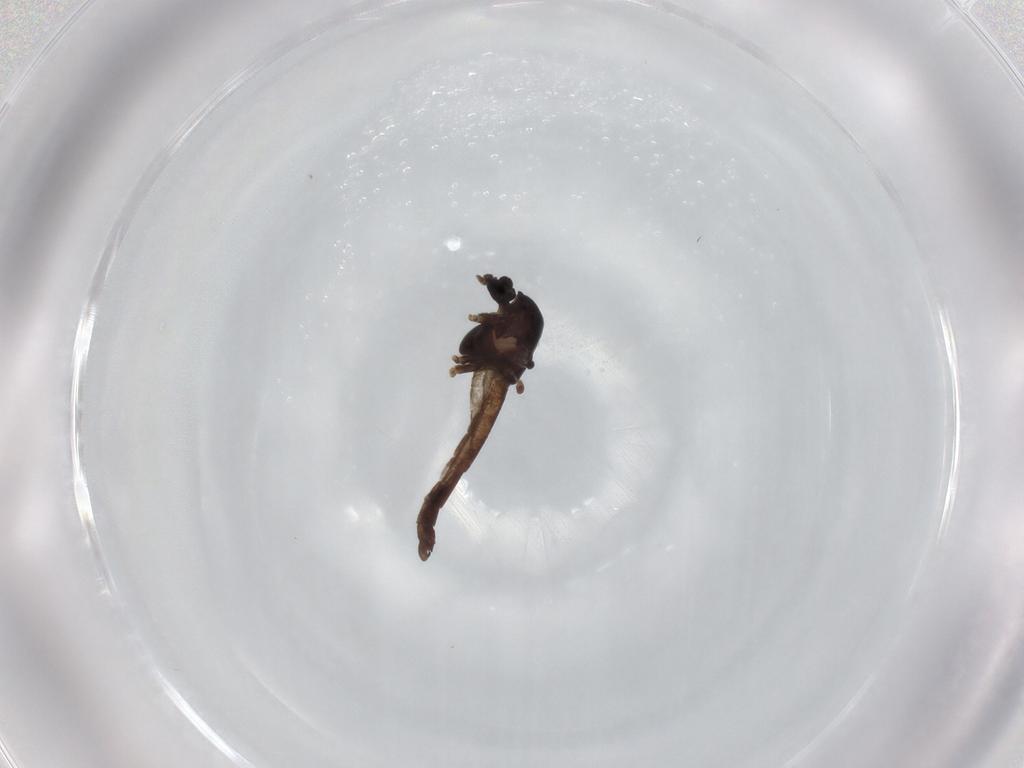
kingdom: Animalia
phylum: Arthropoda
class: Insecta
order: Diptera
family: Chironomidae
